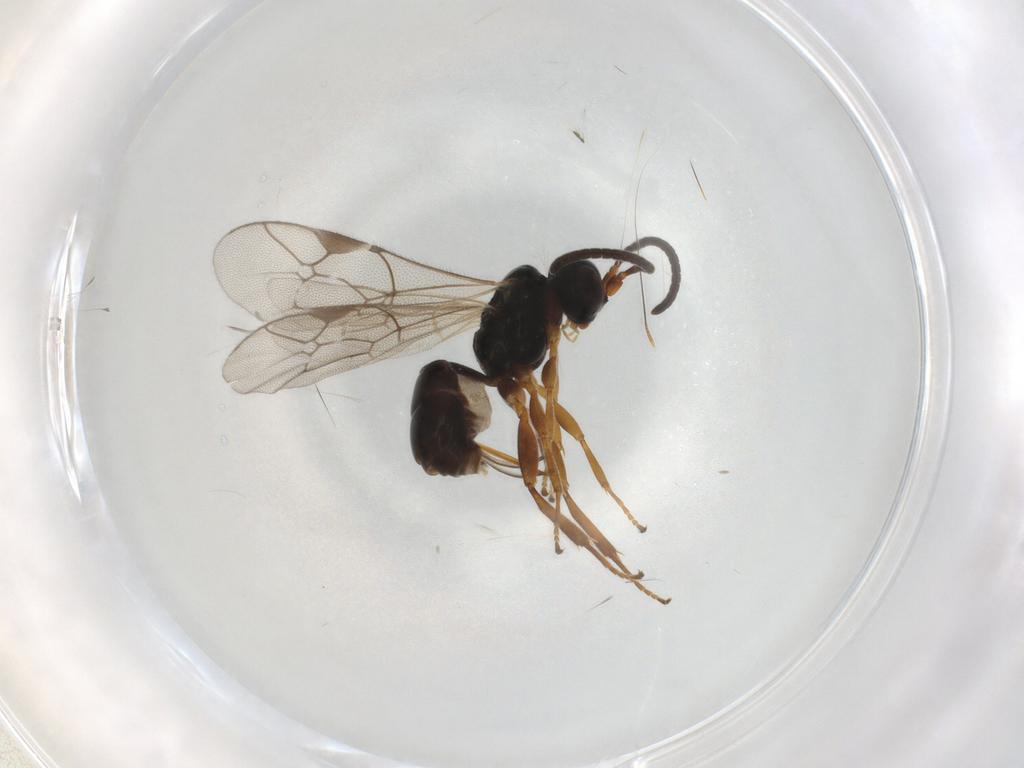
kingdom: Animalia
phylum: Arthropoda
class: Insecta
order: Hymenoptera
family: Ichneumonidae
